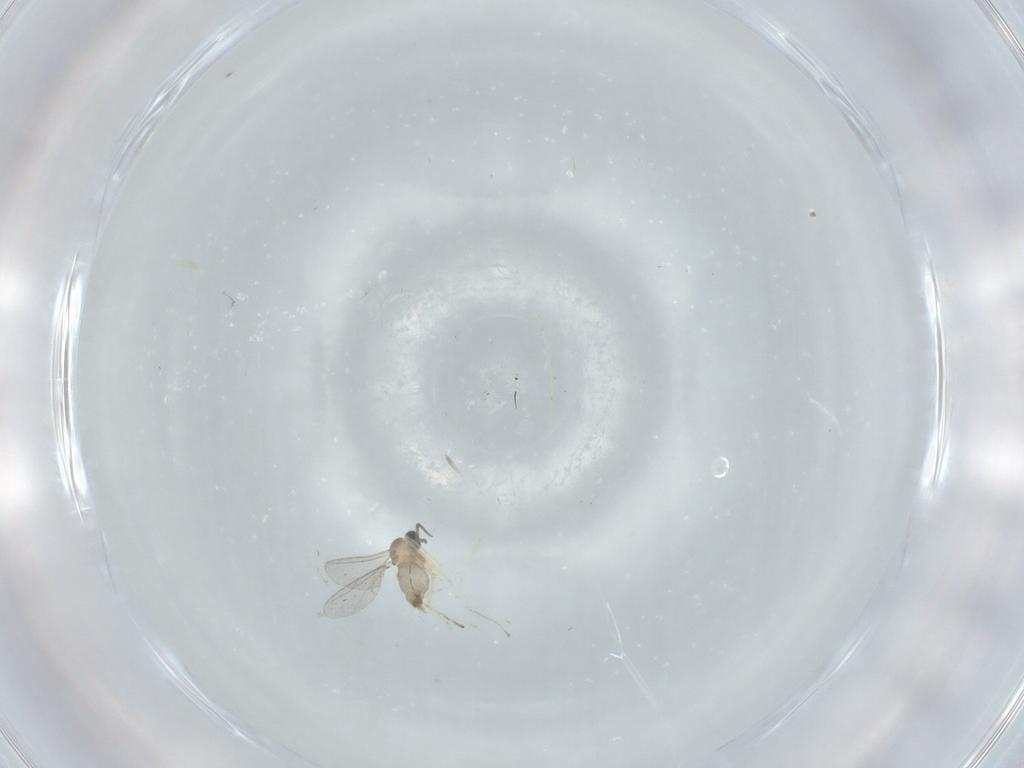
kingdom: Animalia
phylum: Arthropoda
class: Insecta
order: Diptera
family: Cecidomyiidae
